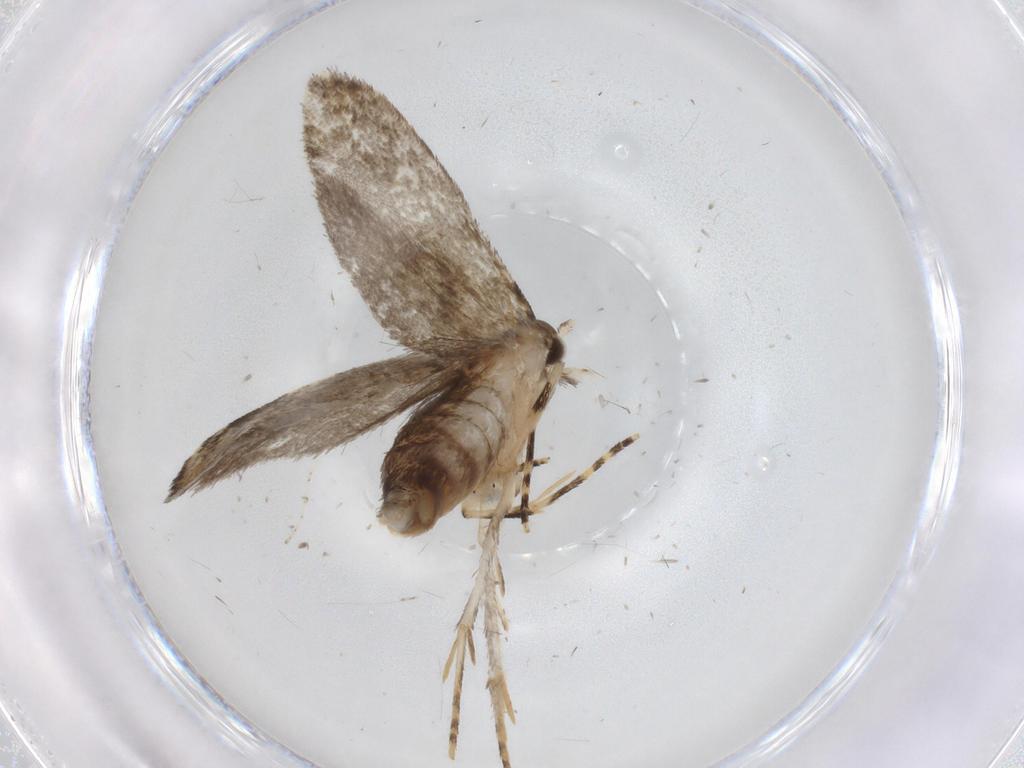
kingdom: Animalia
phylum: Arthropoda
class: Insecta
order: Lepidoptera
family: Tineidae
